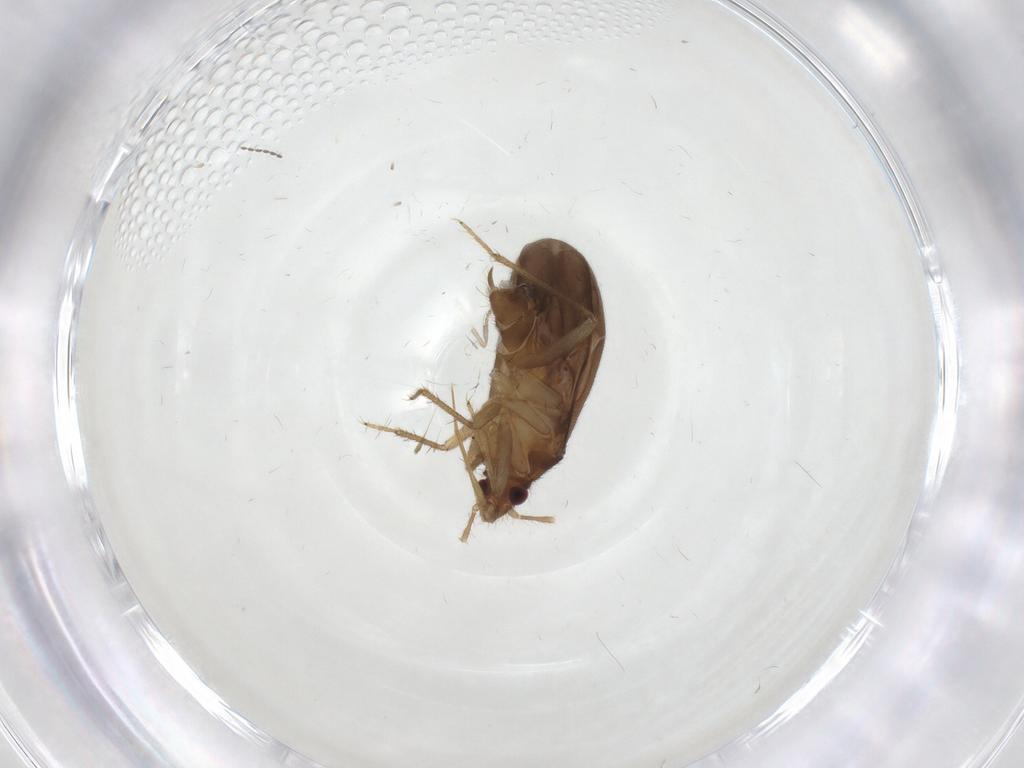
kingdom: Animalia
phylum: Arthropoda
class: Insecta
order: Hemiptera
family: Ceratocombidae
